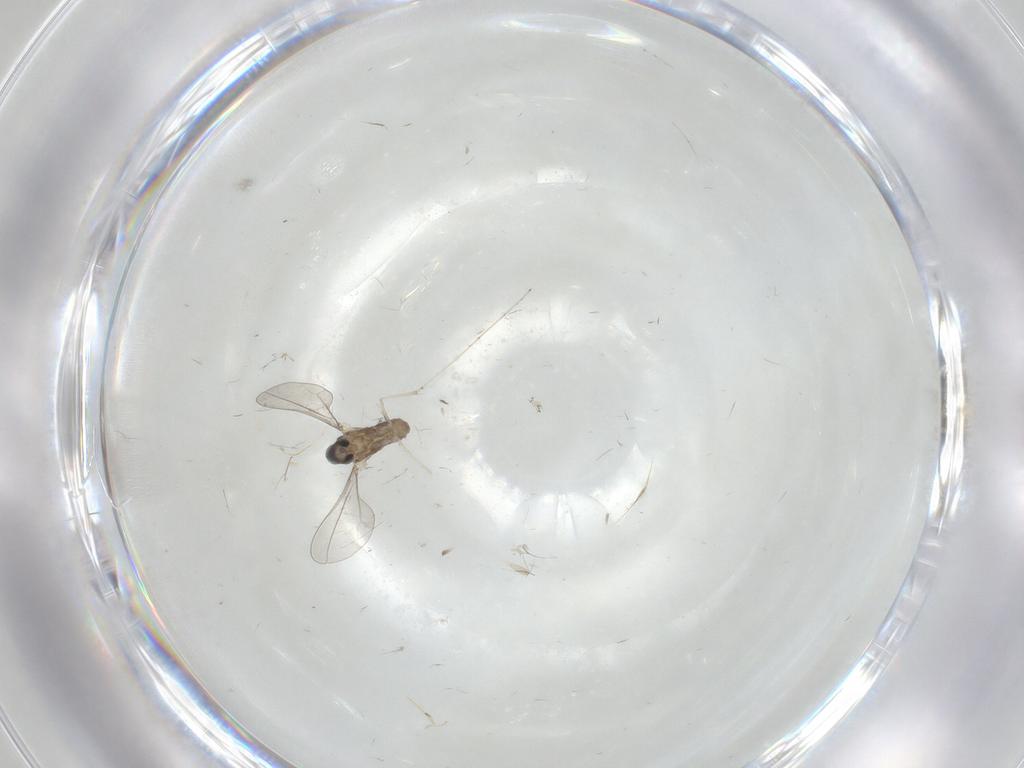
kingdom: Animalia
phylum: Arthropoda
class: Insecta
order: Diptera
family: Cecidomyiidae
